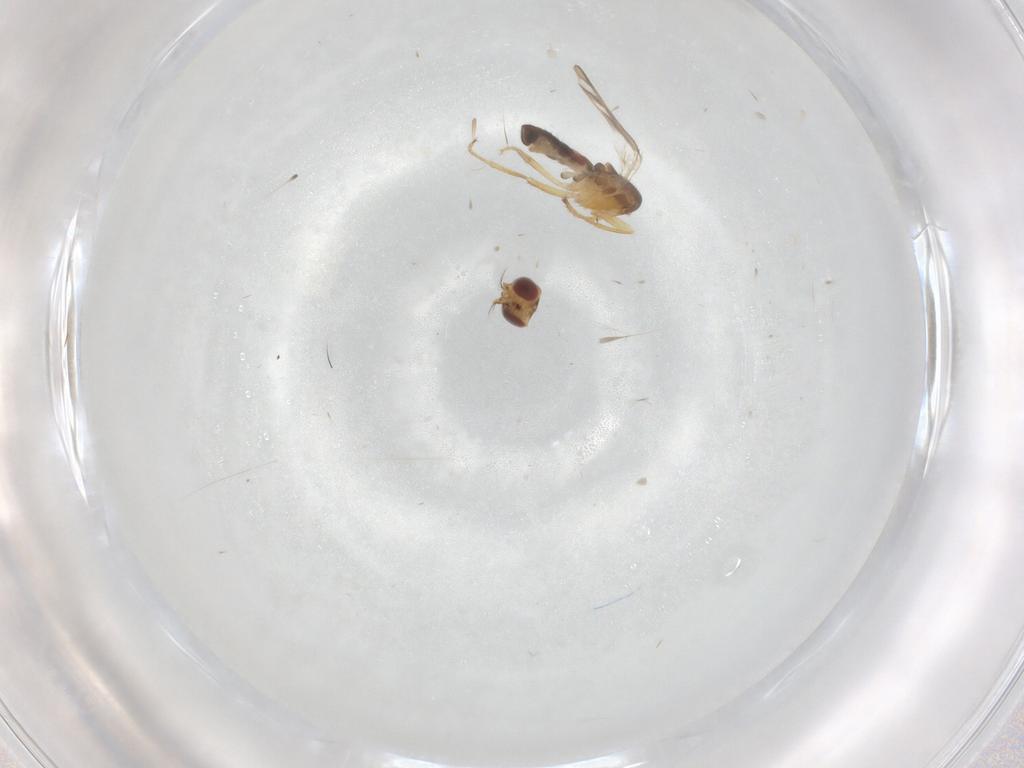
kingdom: Animalia
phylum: Arthropoda
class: Insecta
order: Diptera
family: Periscelididae
